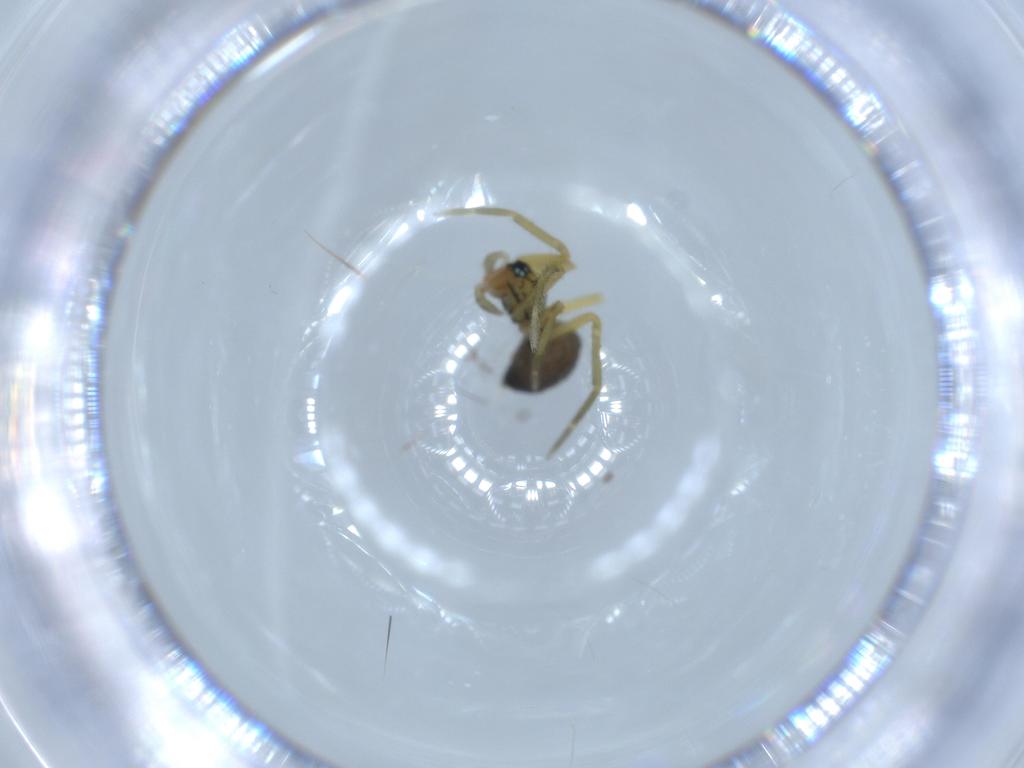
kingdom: Animalia
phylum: Arthropoda
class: Arachnida
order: Araneae
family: Linyphiidae
